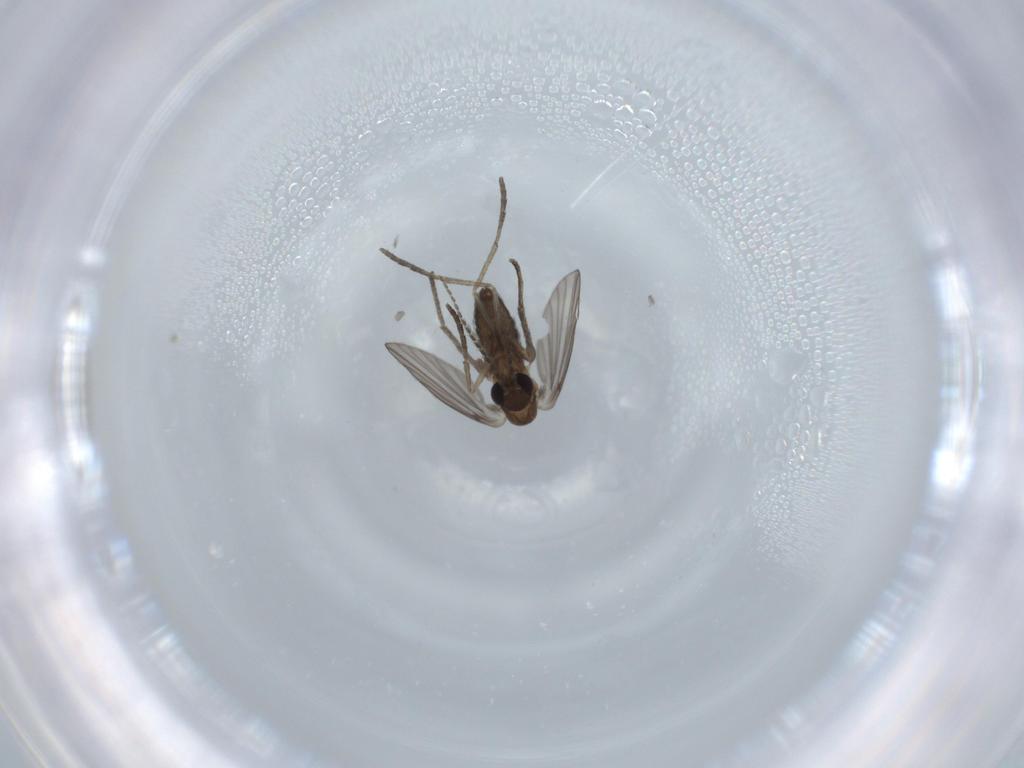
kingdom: Animalia
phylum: Arthropoda
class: Insecta
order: Diptera
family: Psychodidae
